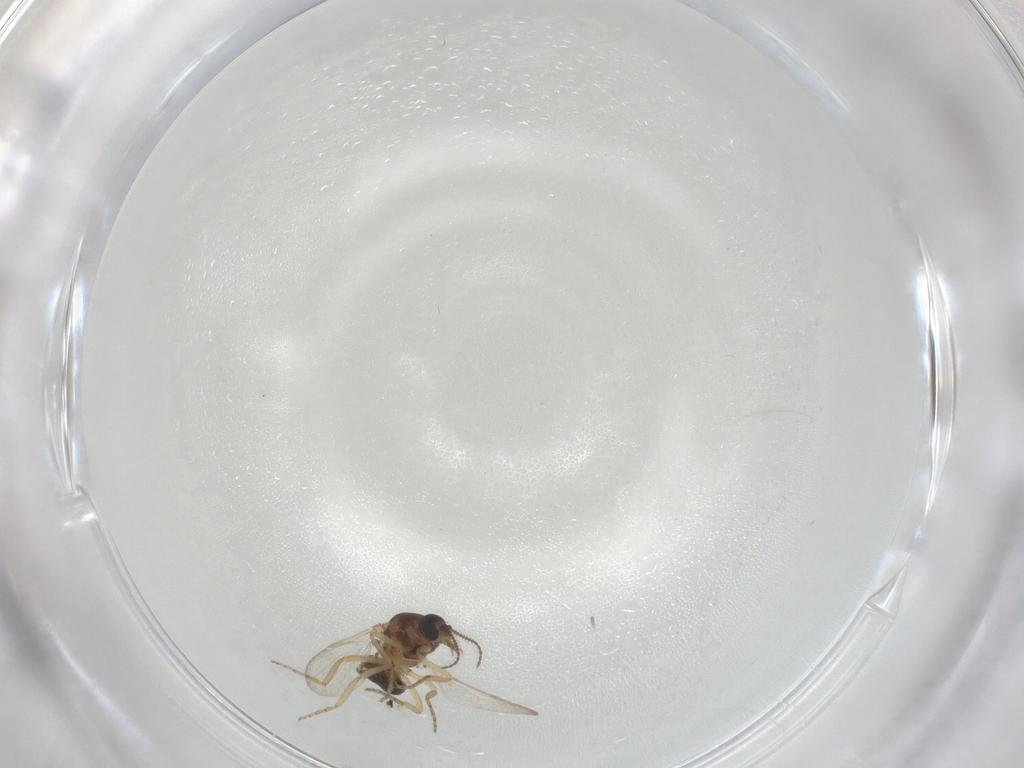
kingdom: Animalia
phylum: Arthropoda
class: Insecta
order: Diptera
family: Ceratopogonidae
